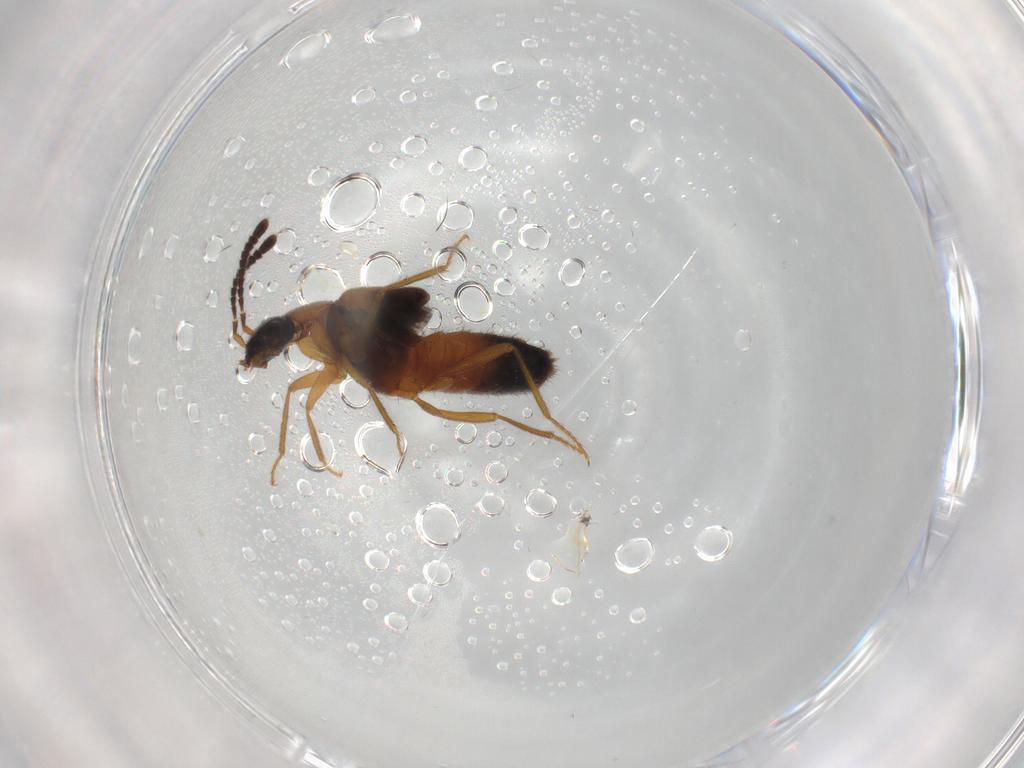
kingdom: Animalia
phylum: Arthropoda
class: Insecta
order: Coleoptera
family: Staphylinidae
